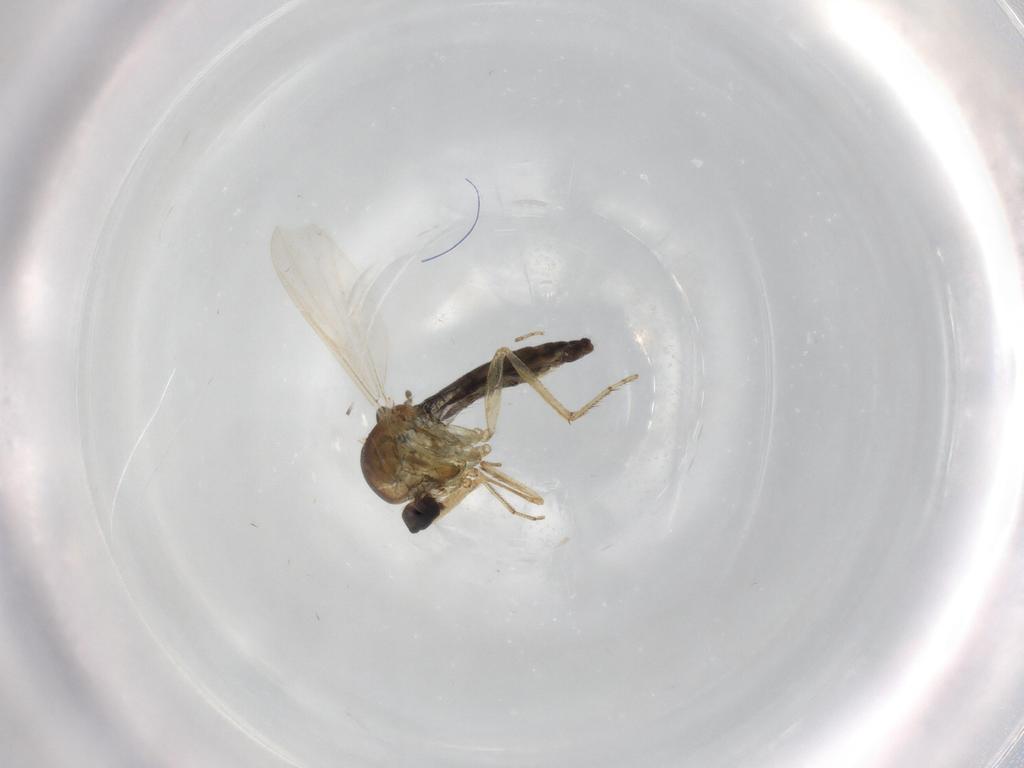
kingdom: Animalia
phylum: Arthropoda
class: Insecta
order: Diptera
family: Ceratopogonidae
